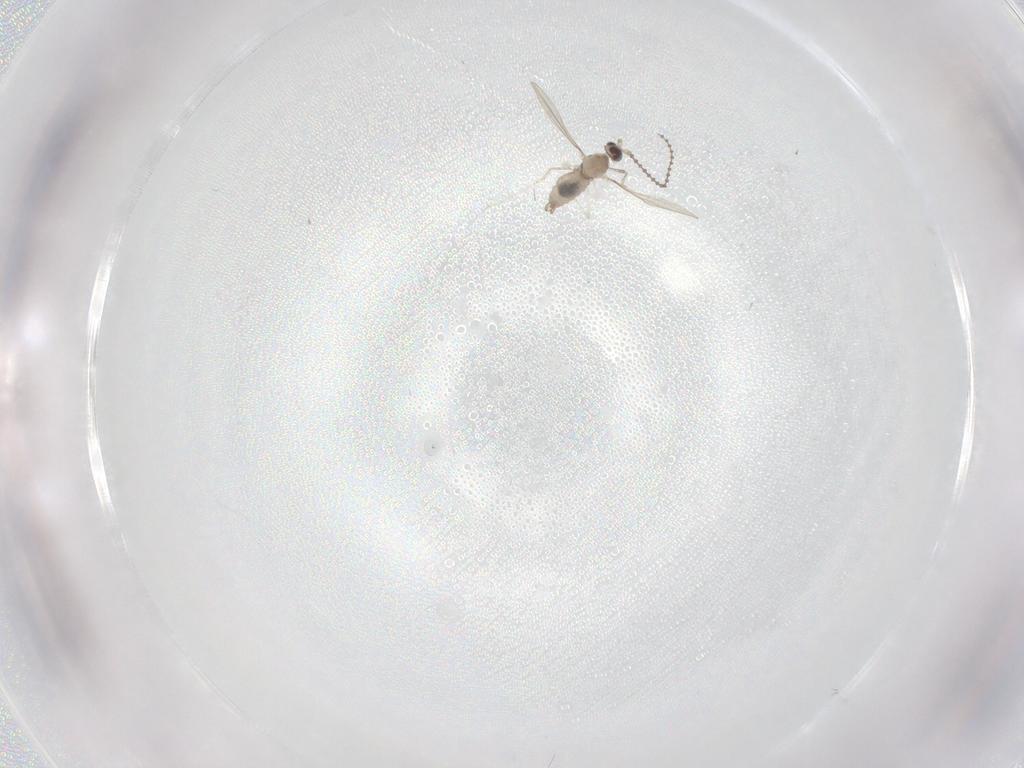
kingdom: Animalia
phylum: Arthropoda
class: Insecta
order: Diptera
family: Cecidomyiidae
